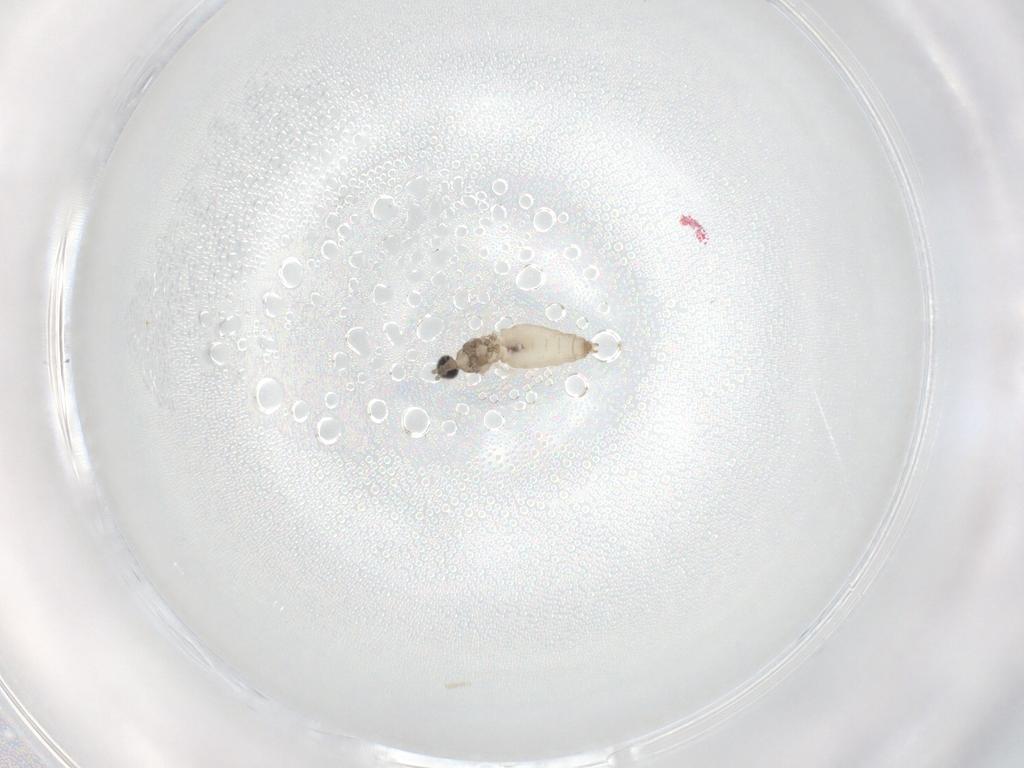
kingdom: Animalia
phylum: Arthropoda
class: Insecta
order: Diptera
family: Cecidomyiidae
